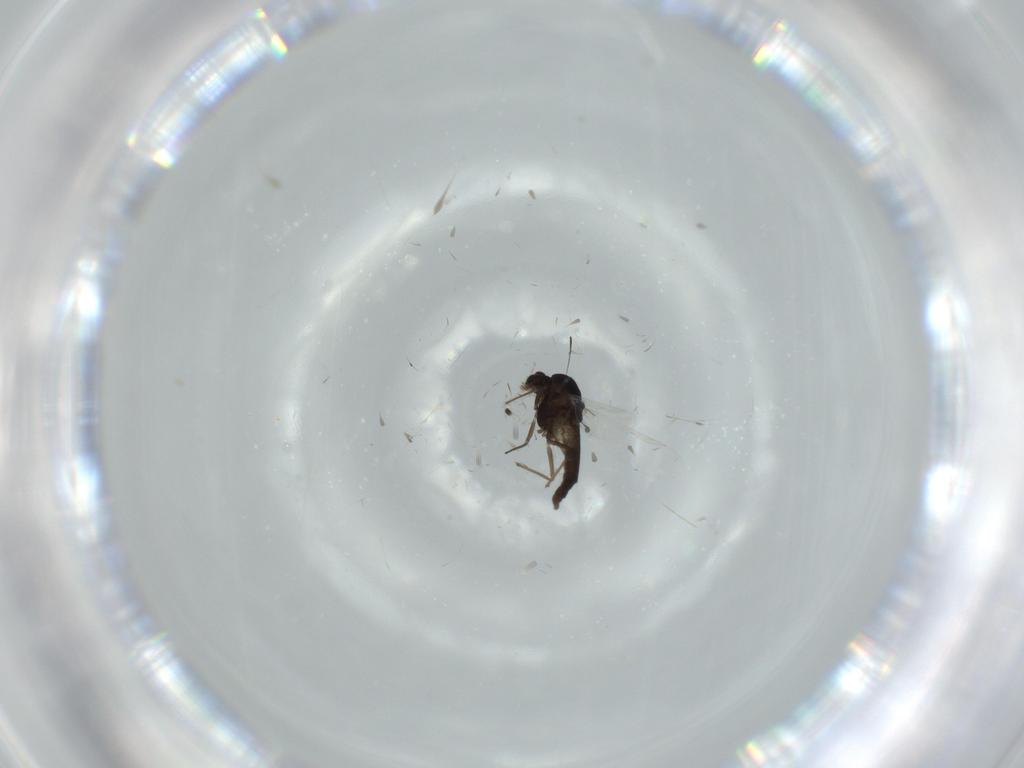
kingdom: Animalia
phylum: Arthropoda
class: Insecta
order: Diptera
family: Chironomidae
